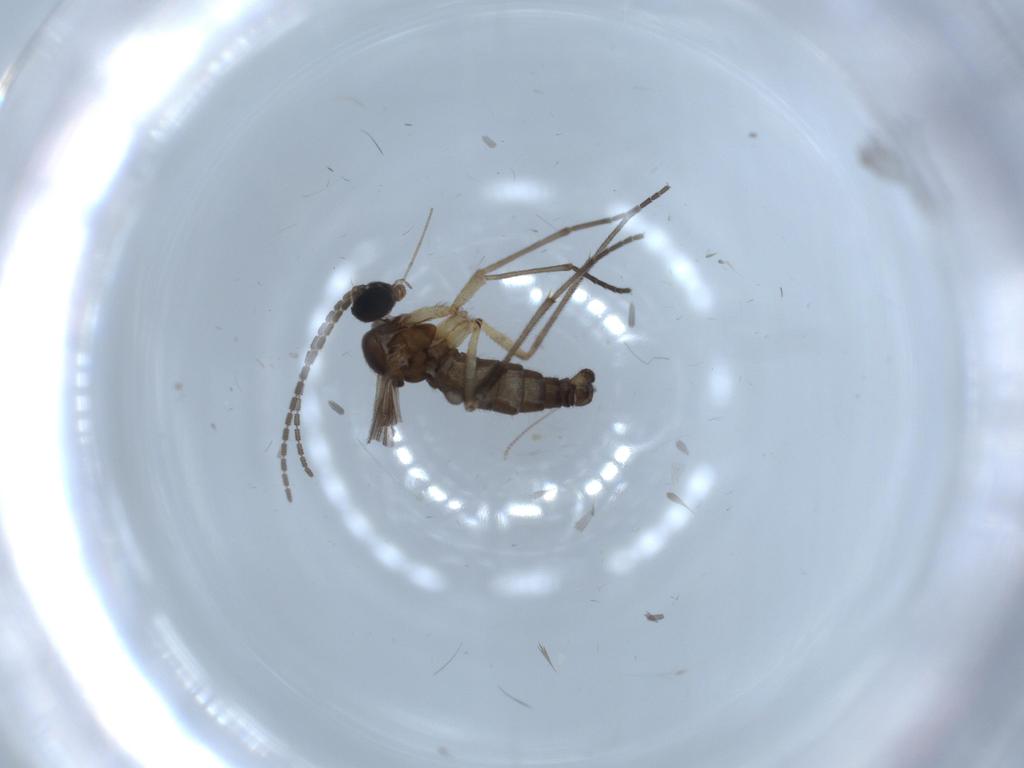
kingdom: Animalia
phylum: Arthropoda
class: Insecta
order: Diptera
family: Sciaridae
